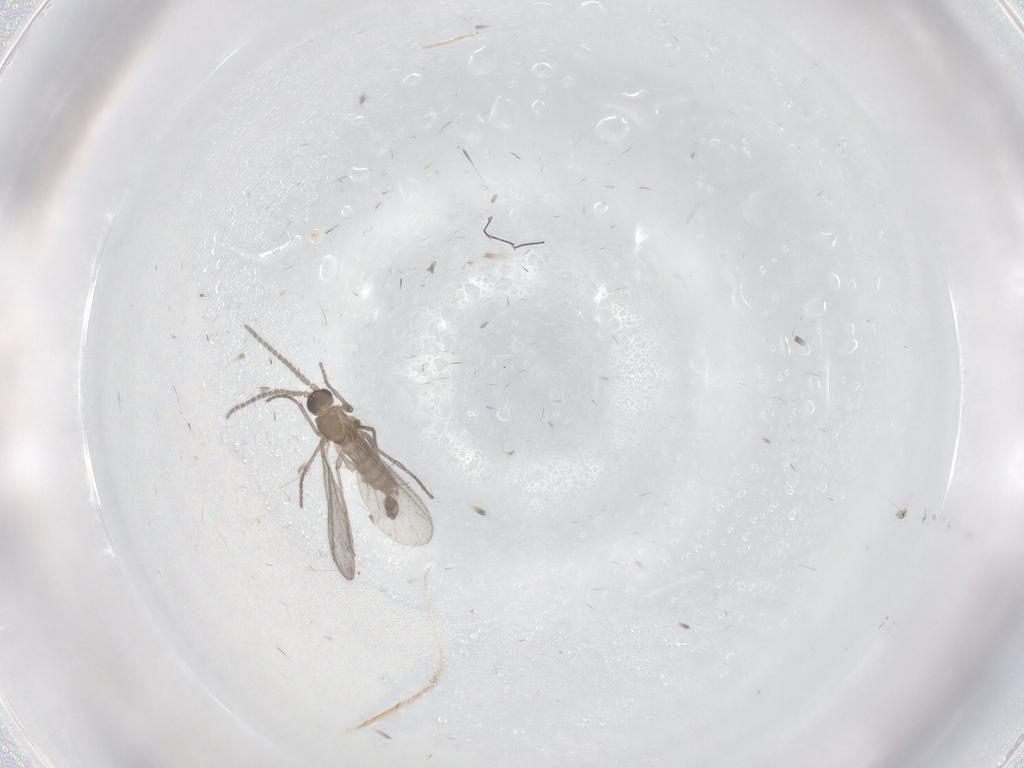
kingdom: Animalia
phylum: Arthropoda
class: Insecta
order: Diptera
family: Sciaridae
